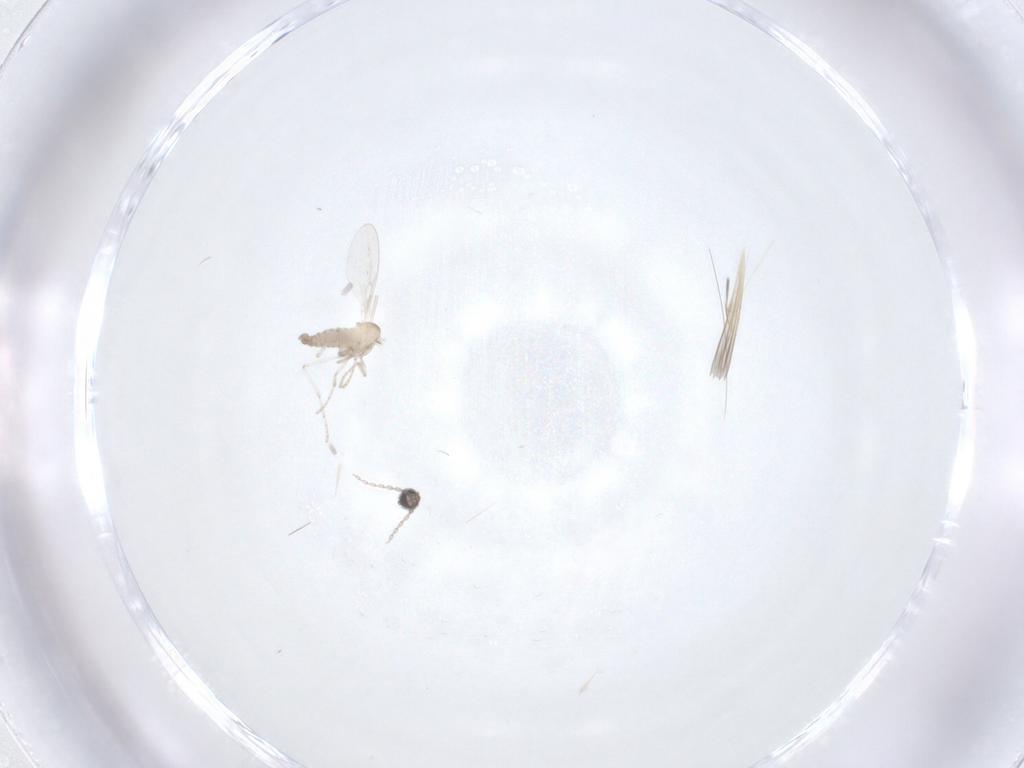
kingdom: Animalia
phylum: Arthropoda
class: Insecta
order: Diptera
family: Cecidomyiidae
